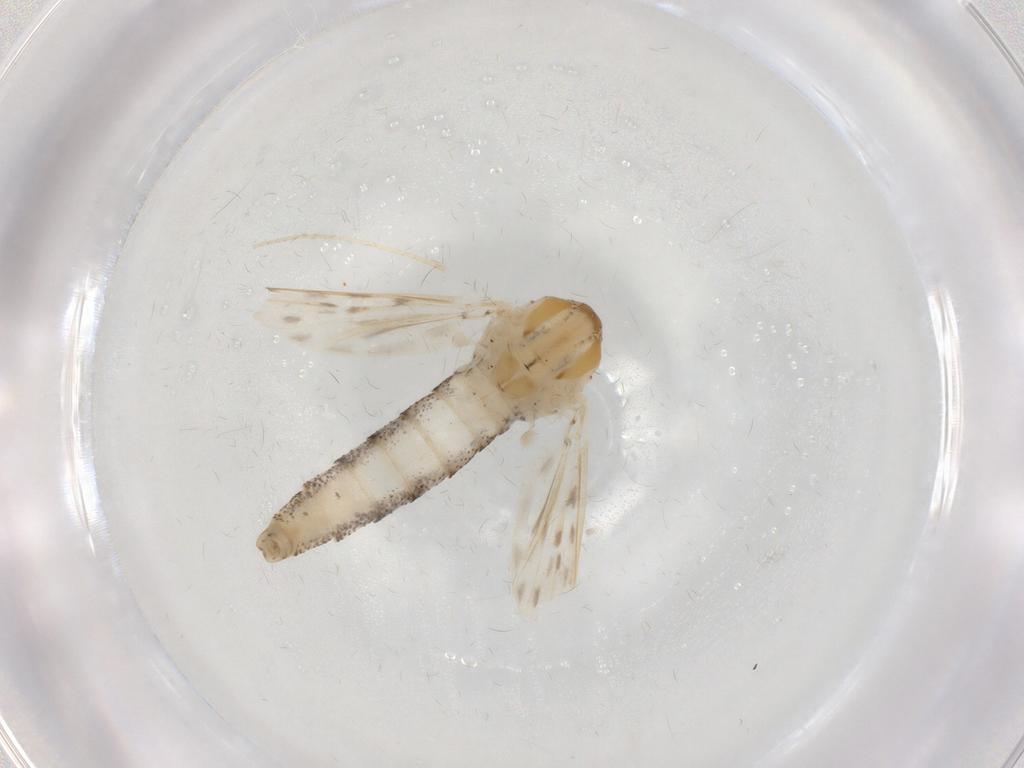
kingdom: Animalia
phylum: Arthropoda
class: Insecta
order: Diptera
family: Chaoboridae
